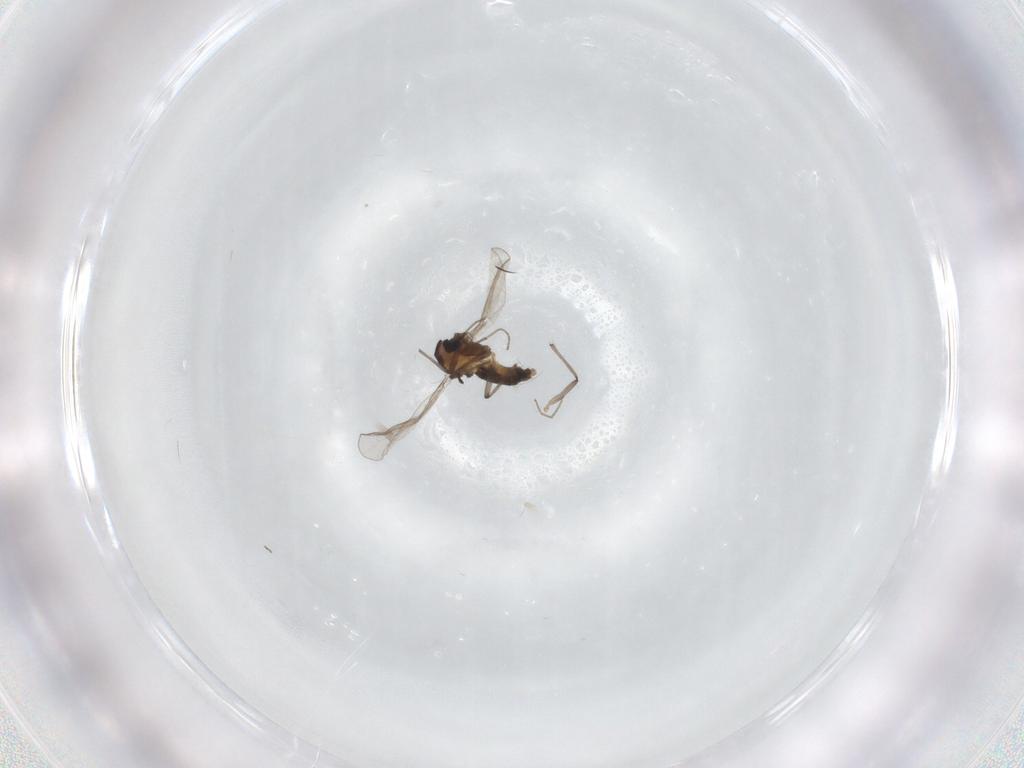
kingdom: Animalia
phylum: Arthropoda
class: Insecta
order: Diptera
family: Chironomidae
